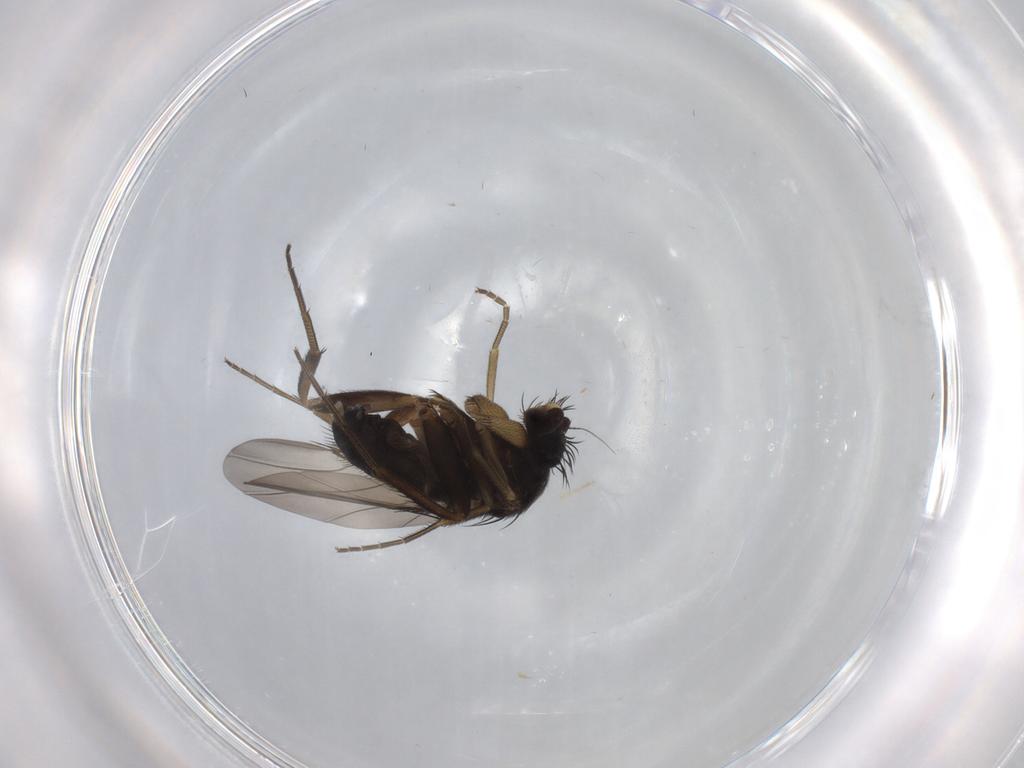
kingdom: Animalia
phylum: Arthropoda
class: Insecta
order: Diptera
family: Phoridae
